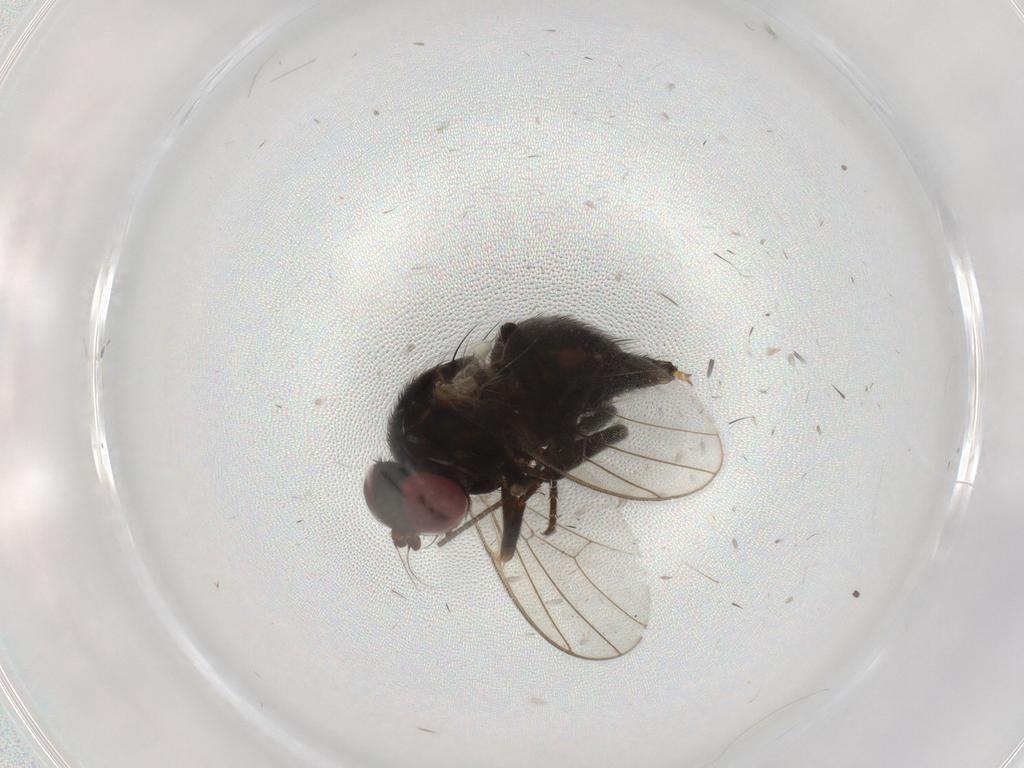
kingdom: Animalia
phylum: Arthropoda
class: Insecta
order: Diptera
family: Agromyzidae
